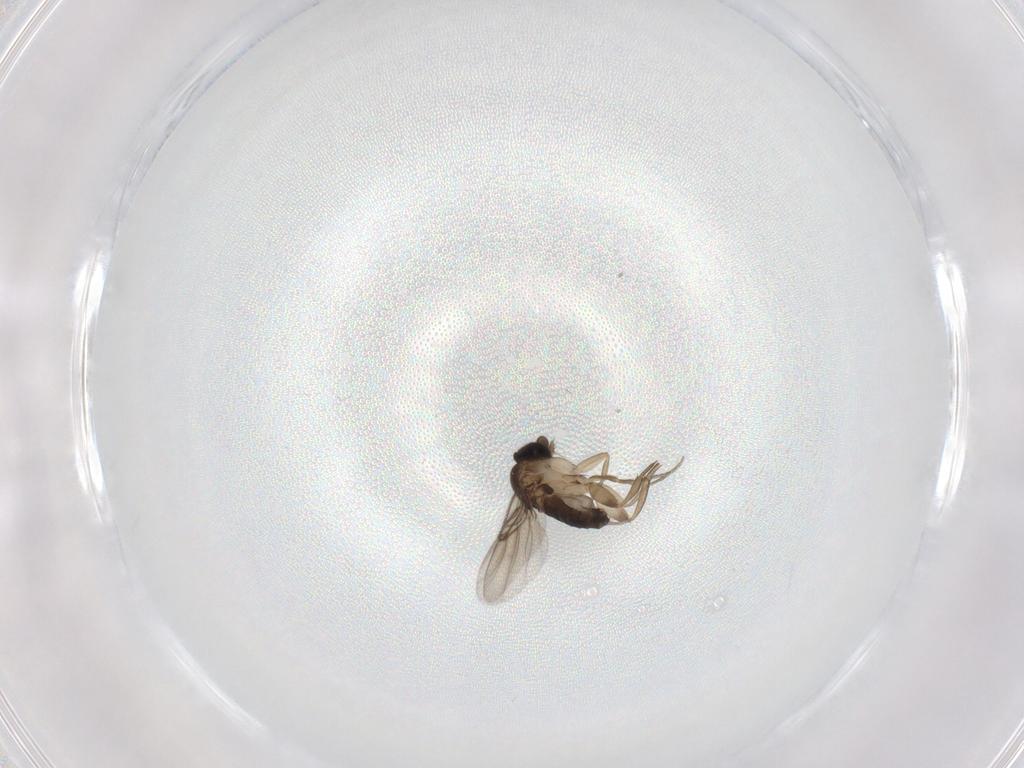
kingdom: Animalia
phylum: Arthropoda
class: Insecta
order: Diptera
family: Phoridae
